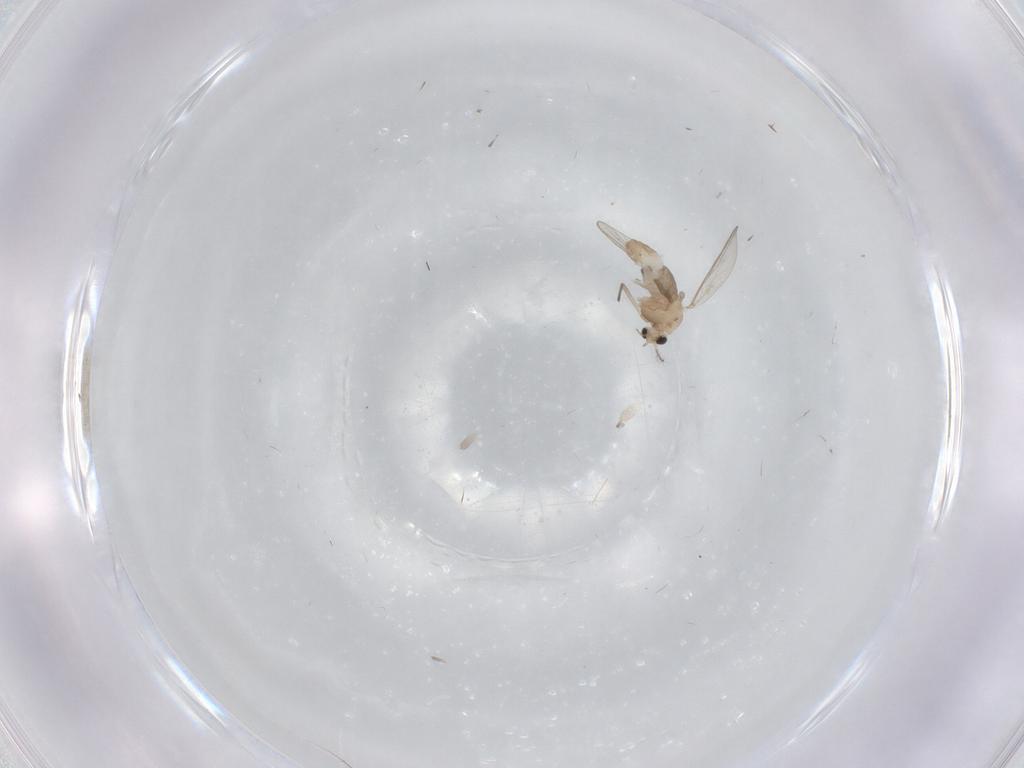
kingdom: Animalia
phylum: Arthropoda
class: Insecta
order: Diptera
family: Chironomidae
